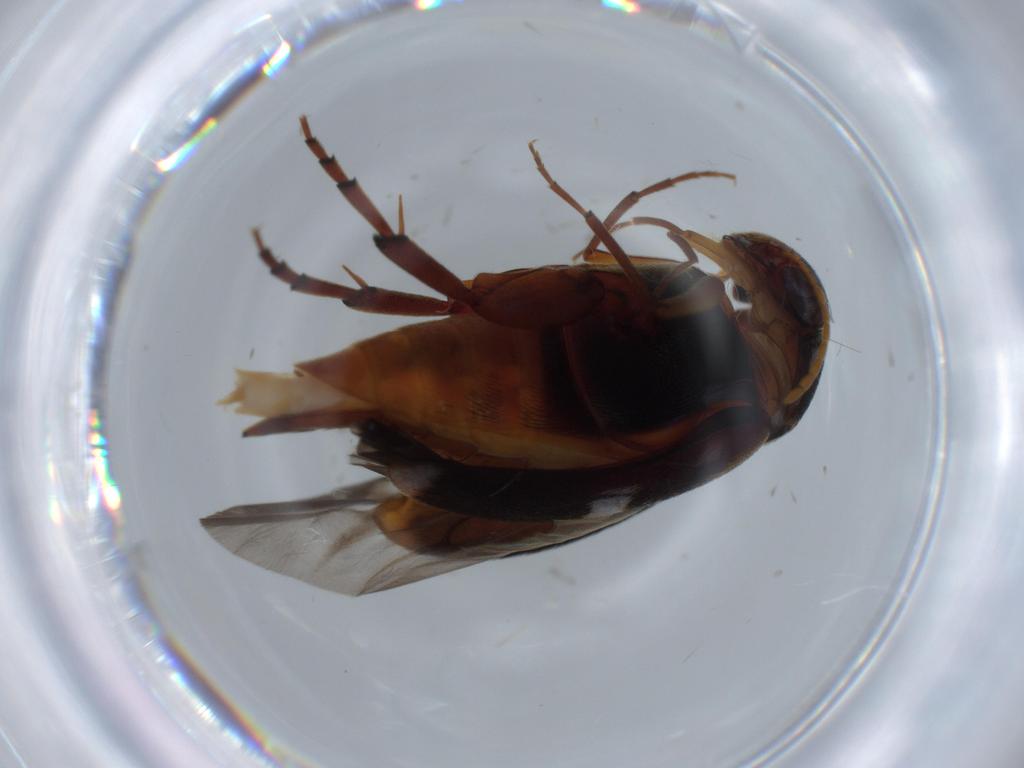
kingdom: Animalia
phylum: Arthropoda
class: Insecta
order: Coleoptera
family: Mordellidae
